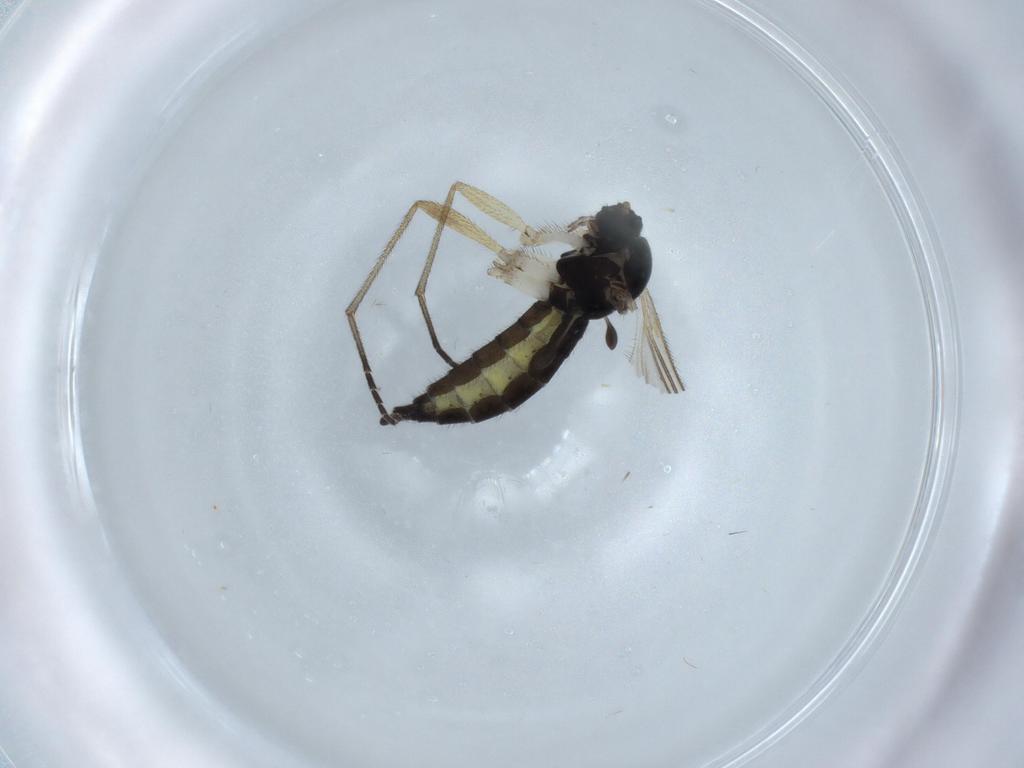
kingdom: Animalia
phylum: Arthropoda
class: Insecta
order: Diptera
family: Sciaridae
